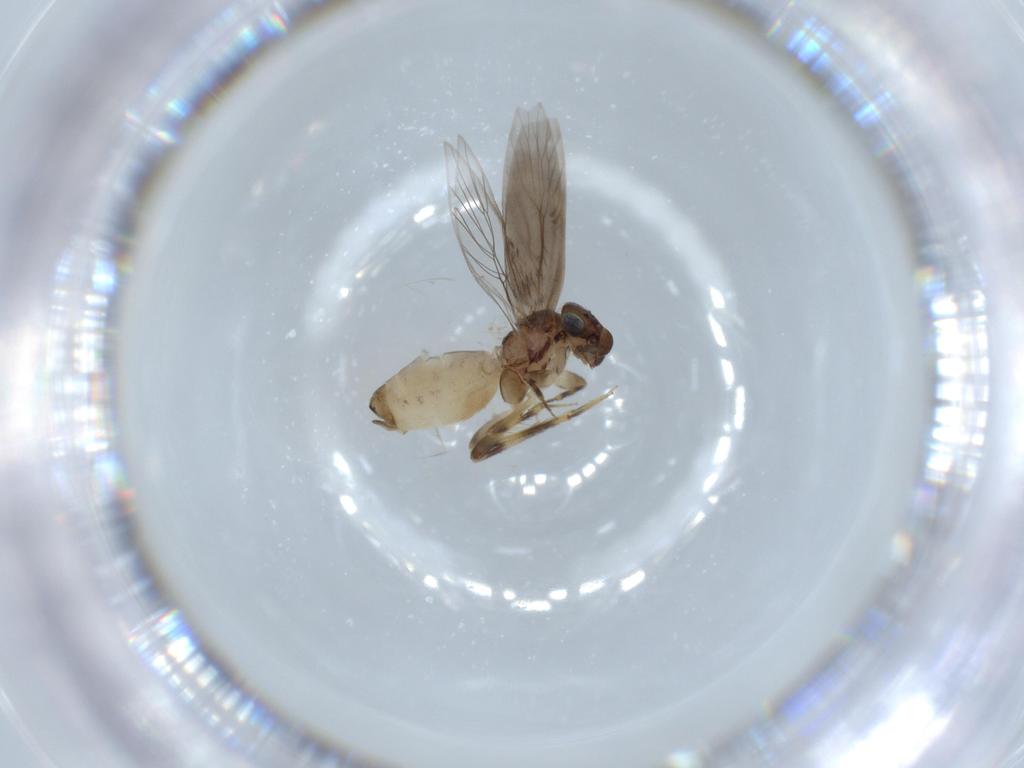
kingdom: Animalia
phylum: Arthropoda
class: Insecta
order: Psocodea
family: Lepidopsocidae
